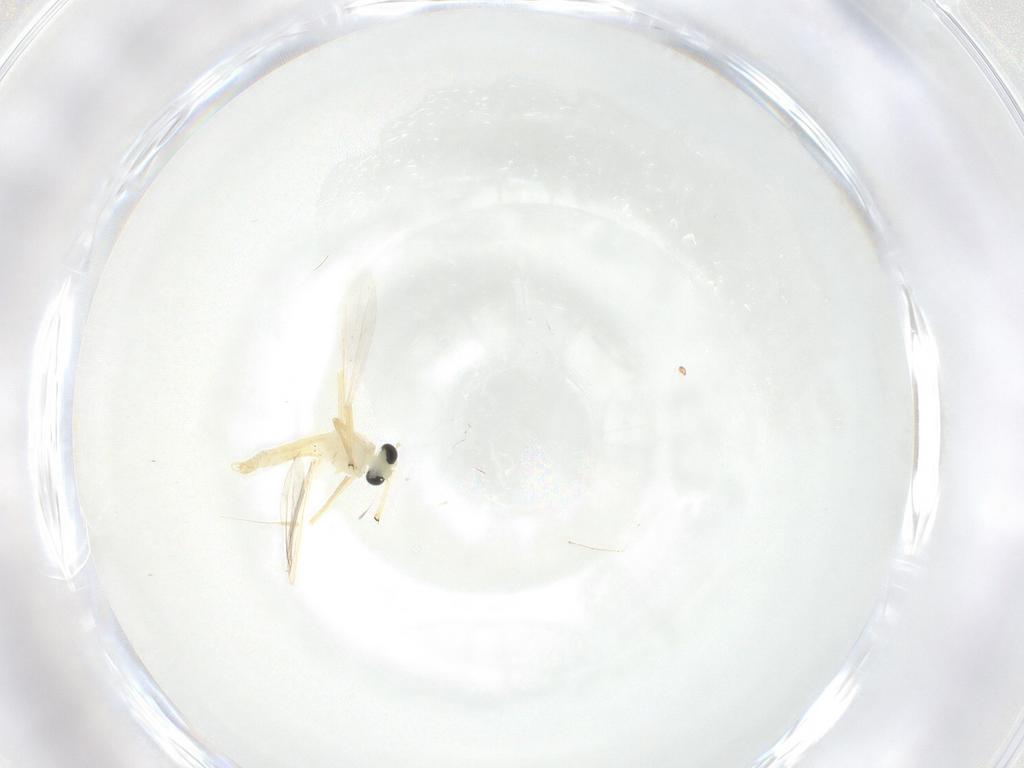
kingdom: Animalia
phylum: Arthropoda
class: Insecta
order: Diptera
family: Chironomidae
